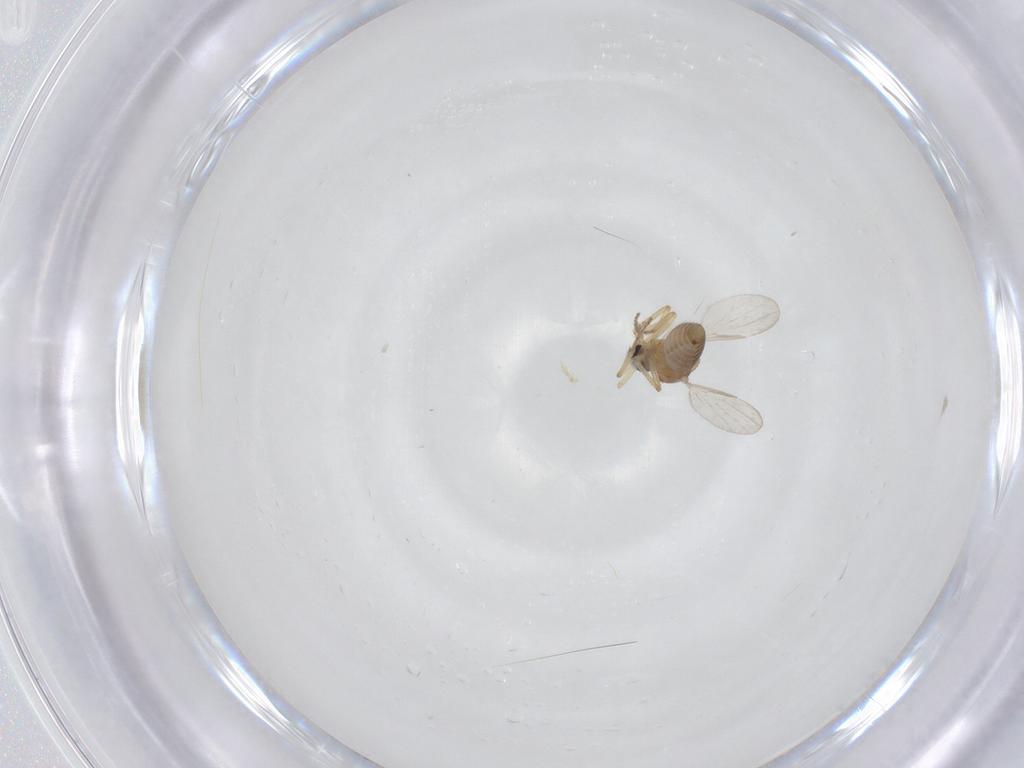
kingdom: Animalia
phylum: Arthropoda
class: Insecta
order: Diptera
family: Ceratopogonidae
